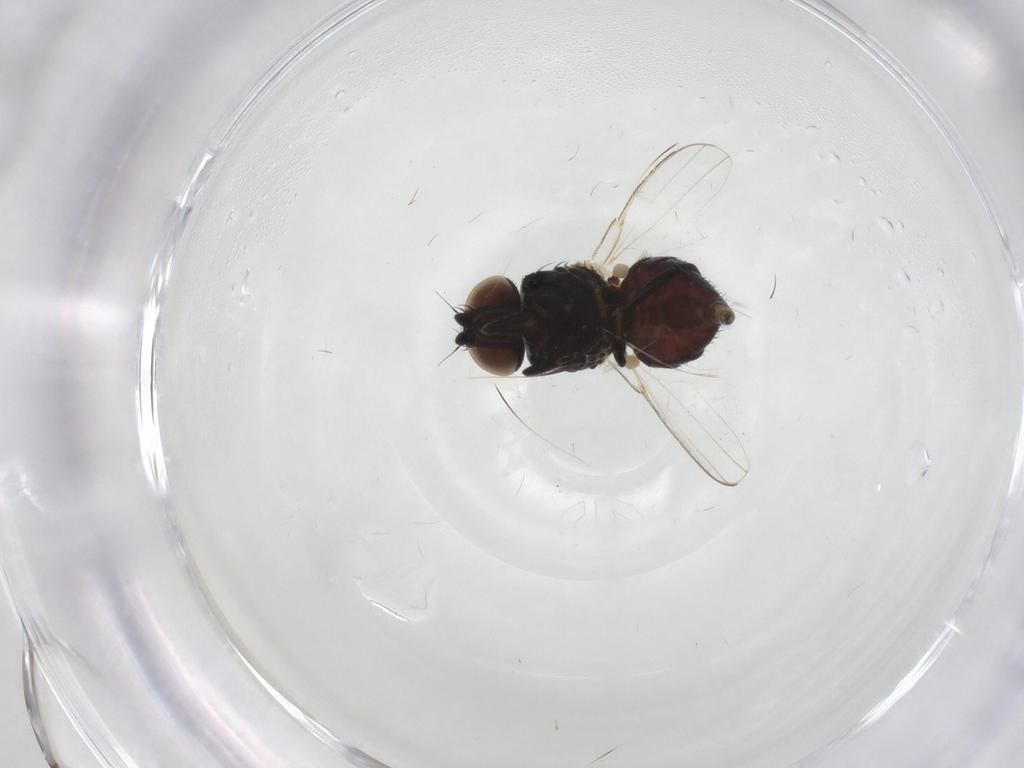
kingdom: Animalia
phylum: Arthropoda
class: Insecta
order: Diptera
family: Milichiidae
